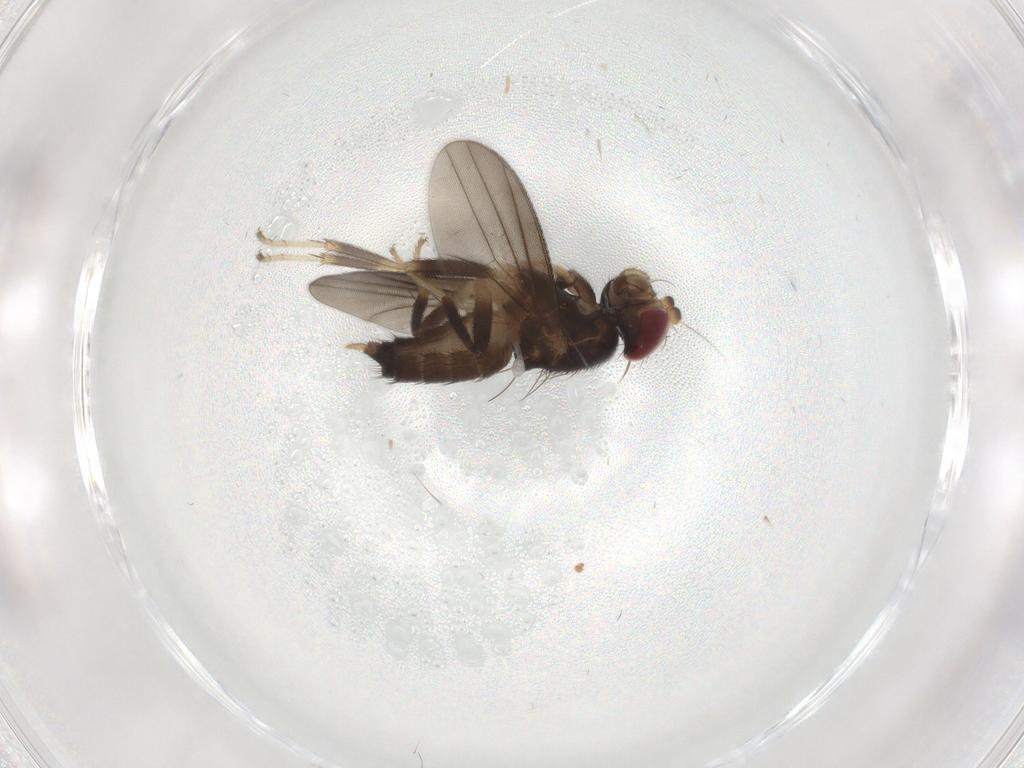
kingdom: Animalia
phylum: Arthropoda
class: Insecta
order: Diptera
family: Clusiidae
